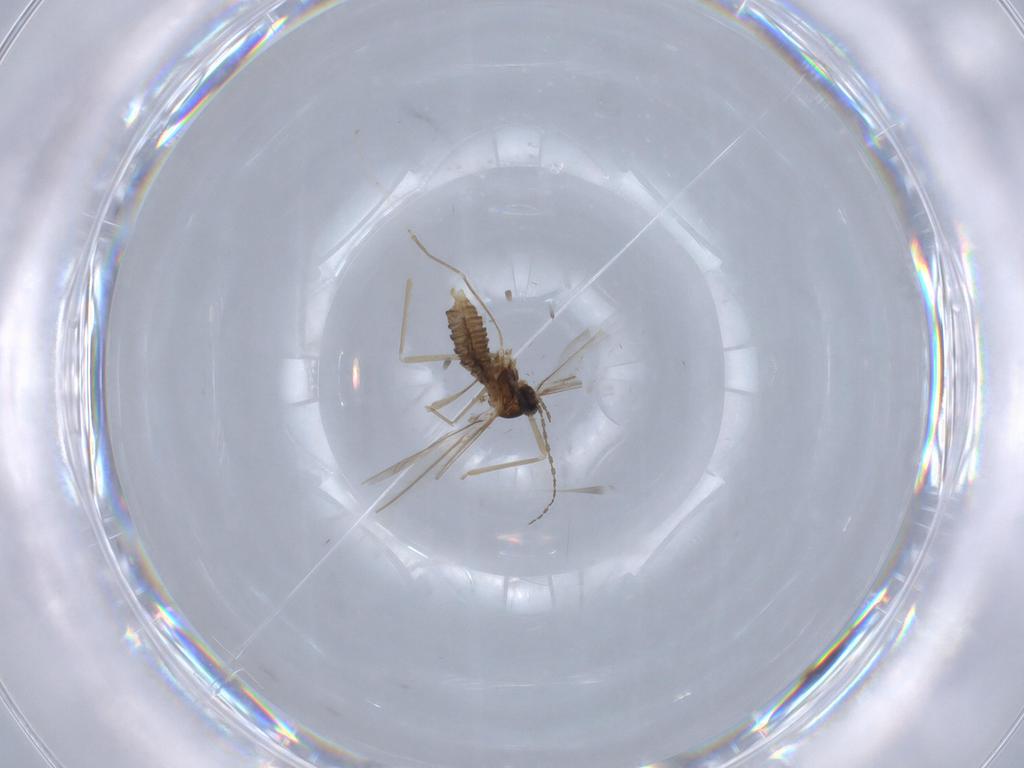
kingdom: Animalia
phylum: Arthropoda
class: Insecta
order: Diptera
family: Cecidomyiidae
